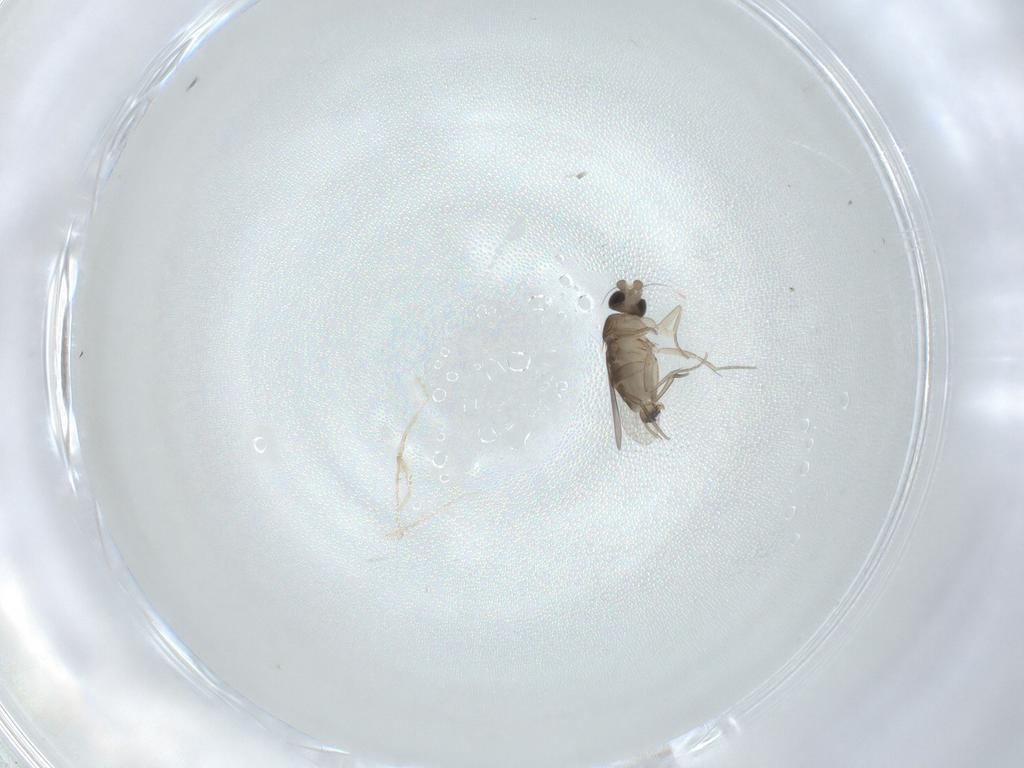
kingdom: Animalia
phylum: Arthropoda
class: Insecta
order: Diptera
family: Phoridae
